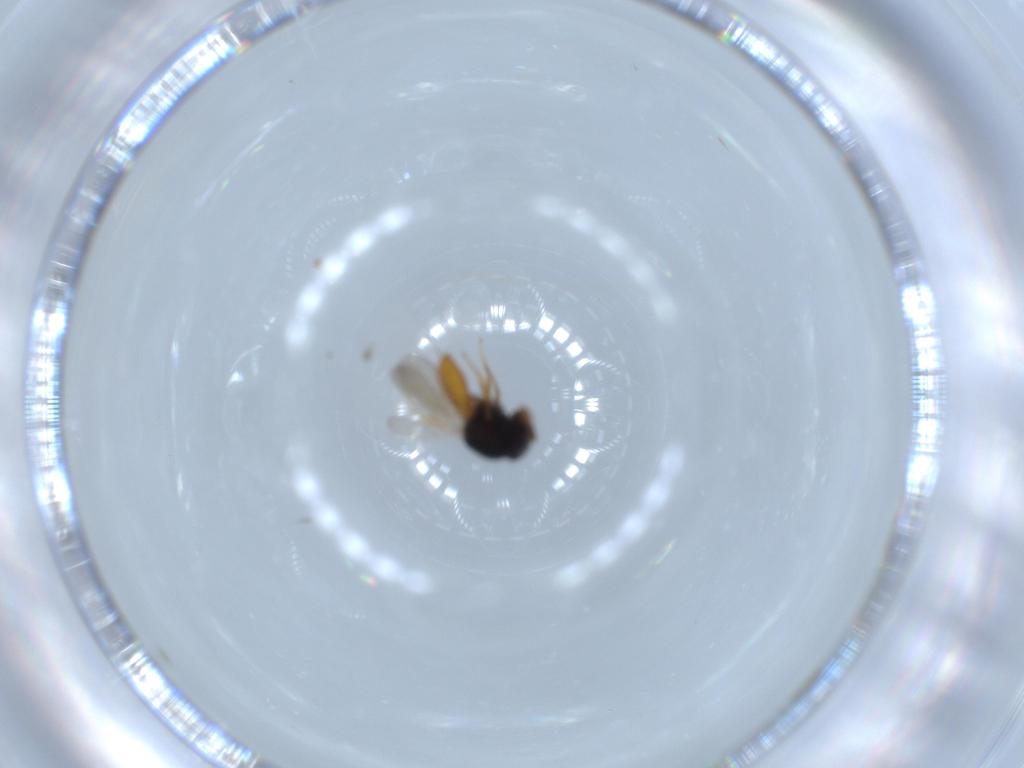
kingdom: Animalia
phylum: Arthropoda
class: Insecta
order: Hymenoptera
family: Scelionidae
